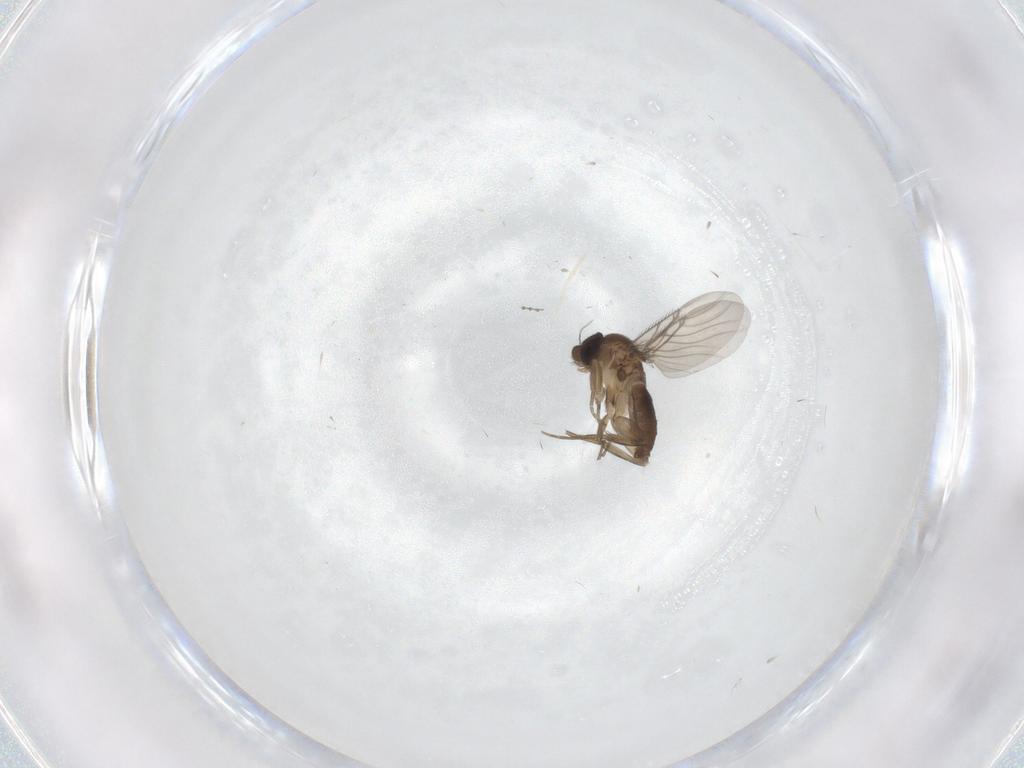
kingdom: Animalia
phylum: Arthropoda
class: Insecta
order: Diptera
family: Phoridae
